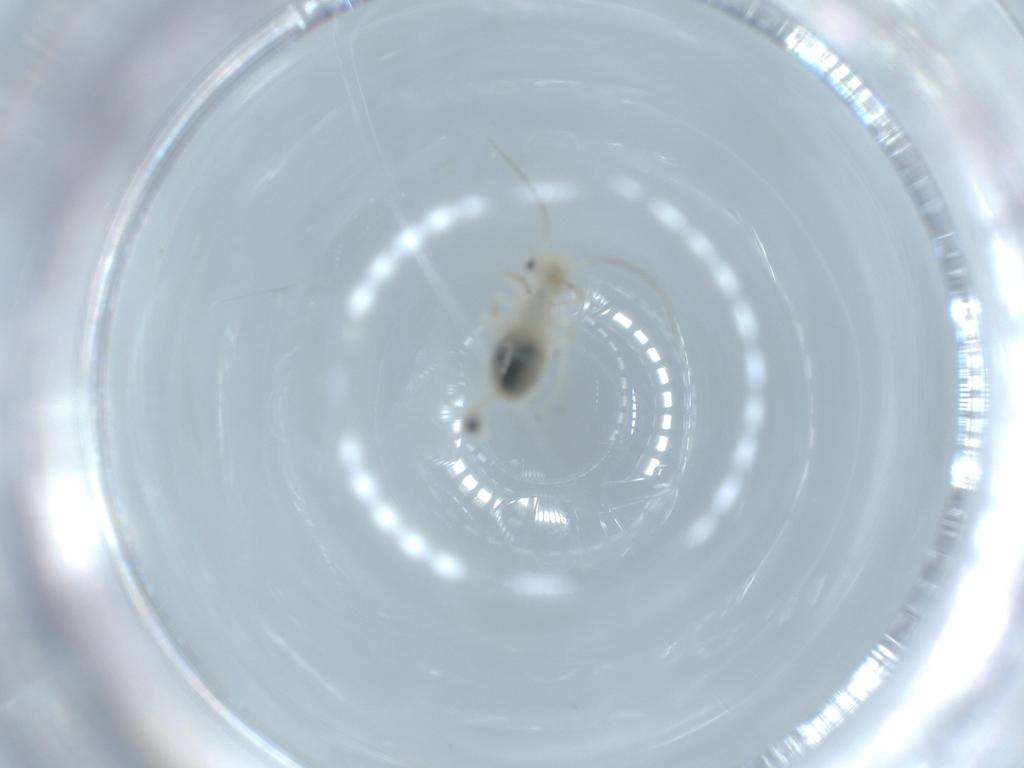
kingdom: Animalia
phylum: Arthropoda
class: Insecta
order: Psocodea
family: Caeciliusidae
